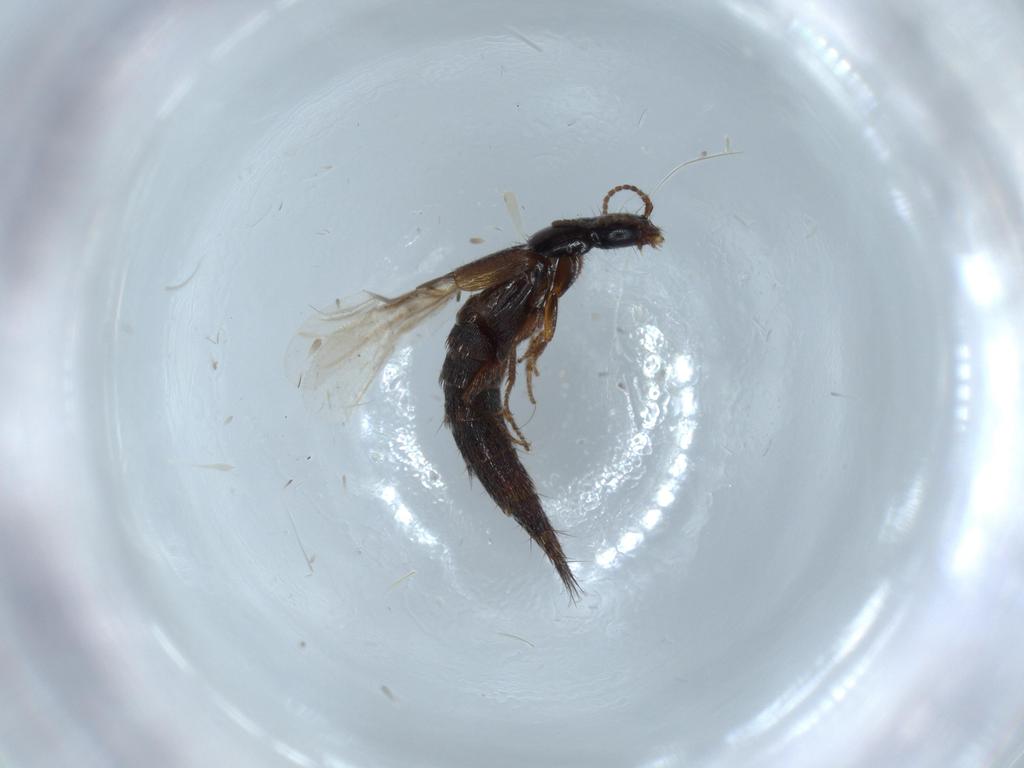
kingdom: Animalia
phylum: Arthropoda
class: Insecta
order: Coleoptera
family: Staphylinidae
